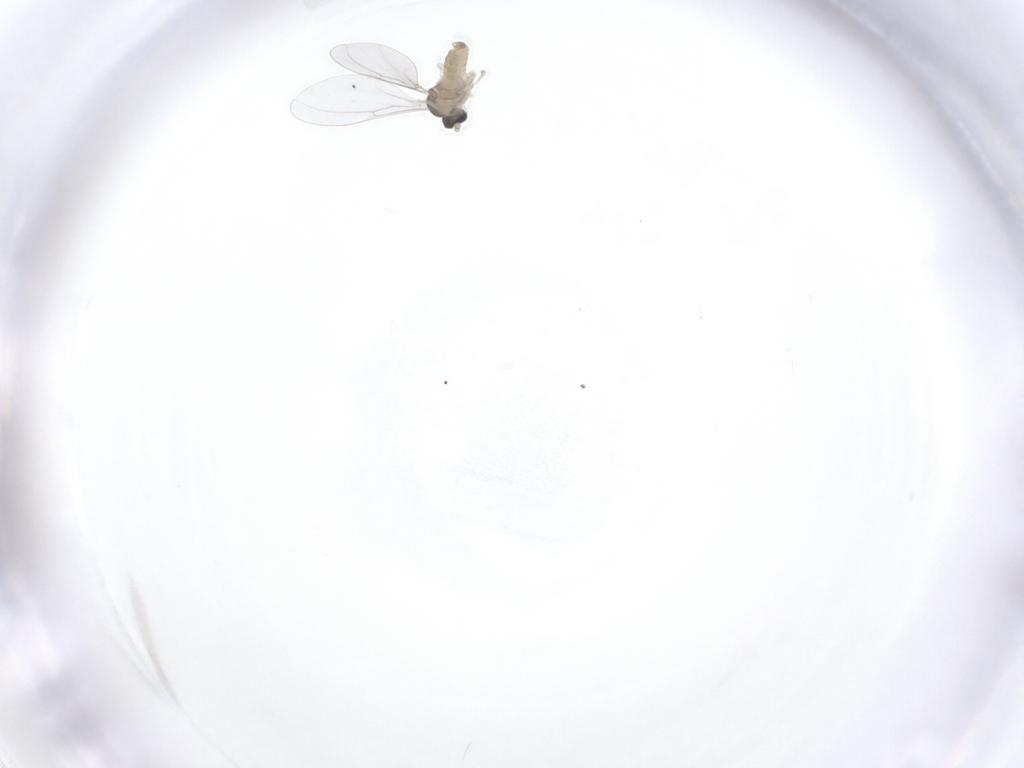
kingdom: Animalia
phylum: Arthropoda
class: Insecta
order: Diptera
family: Cecidomyiidae
